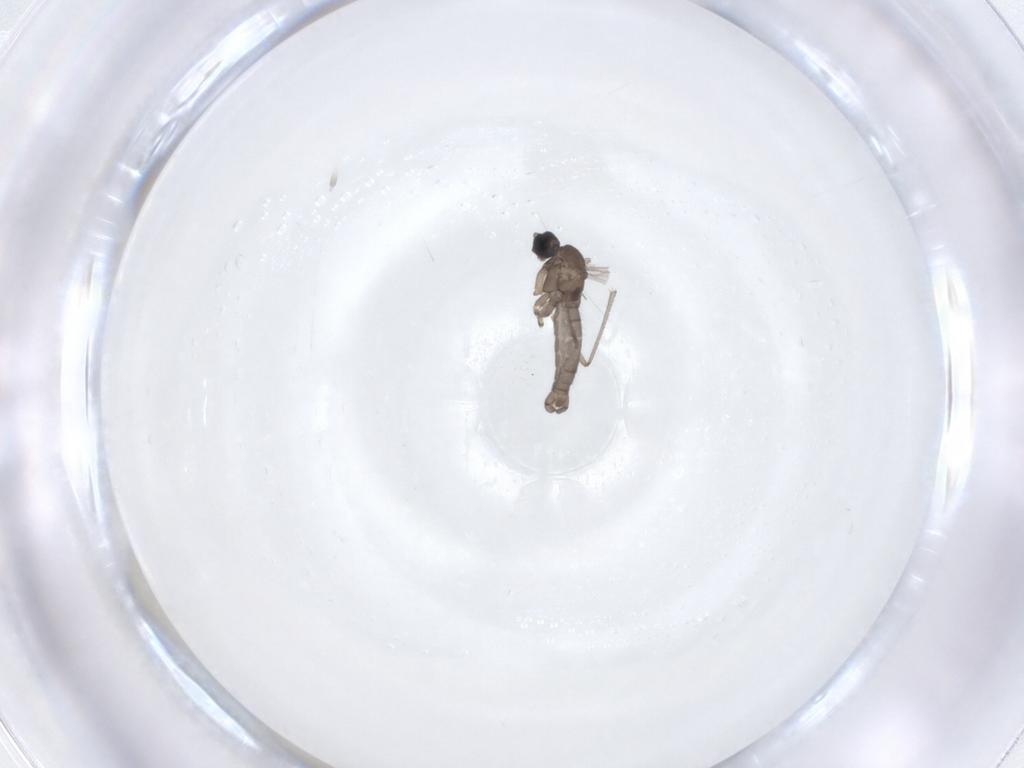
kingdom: Animalia
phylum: Arthropoda
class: Insecta
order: Diptera
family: Sciaridae
